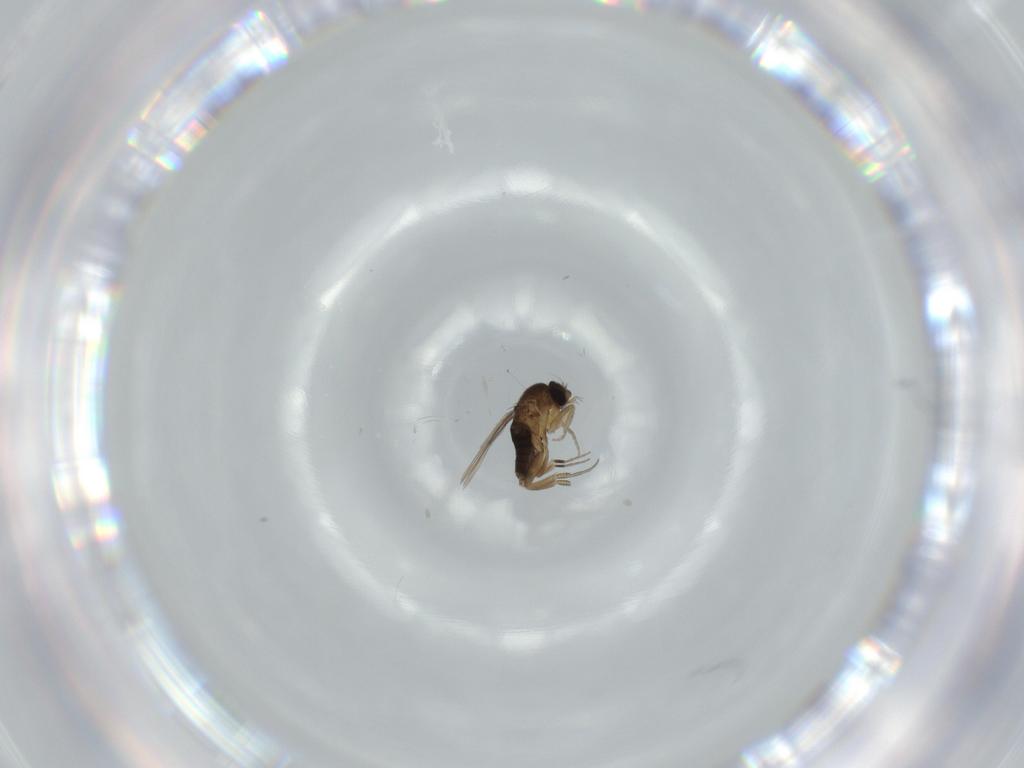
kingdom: Animalia
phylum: Arthropoda
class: Insecta
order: Diptera
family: Phoridae
